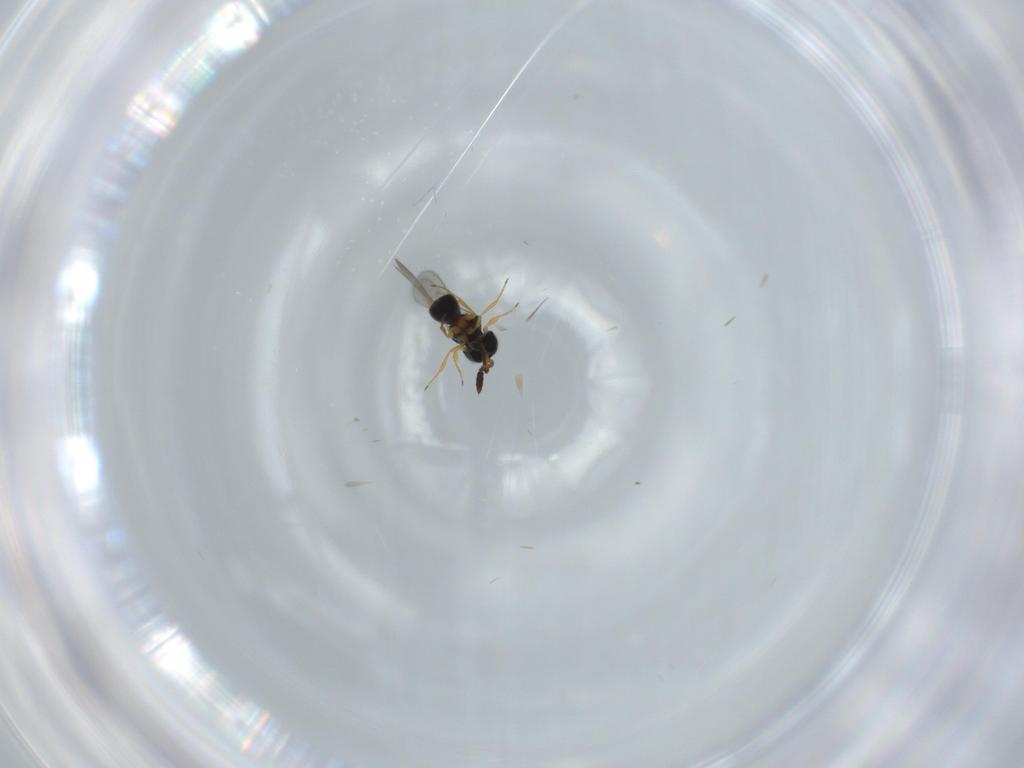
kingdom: Animalia
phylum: Arthropoda
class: Insecta
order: Hymenoptera
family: Scelionidae
